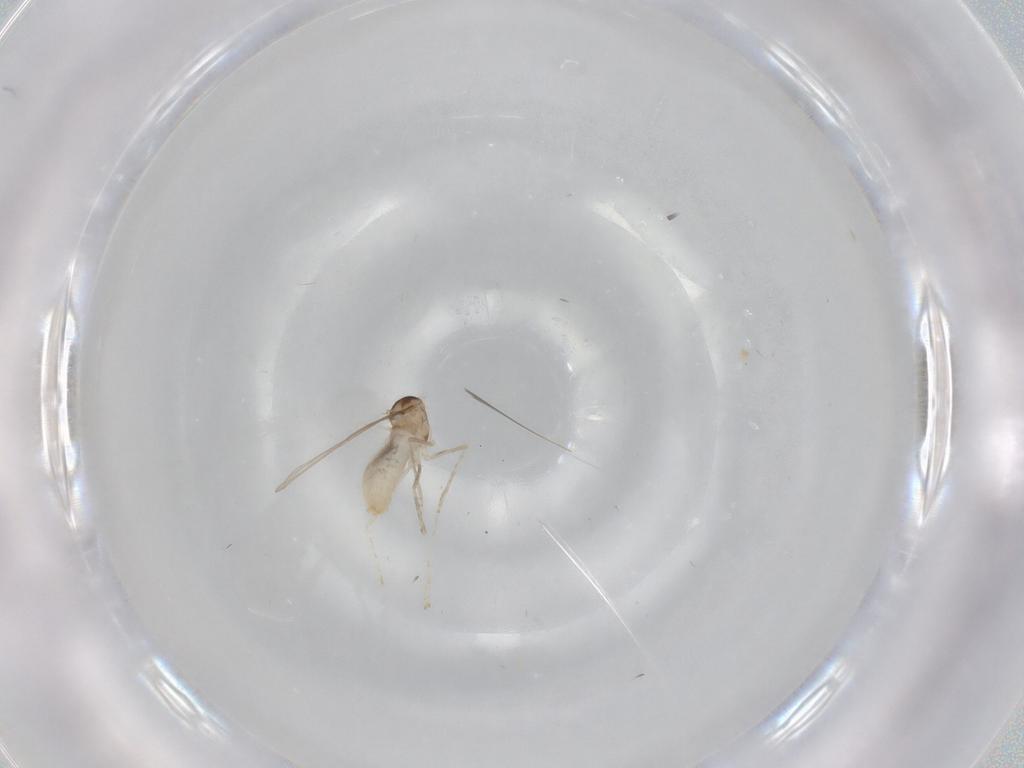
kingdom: Animalia
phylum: Arthropoda
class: Insecta
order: Diptera
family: Cecidomyiidae
